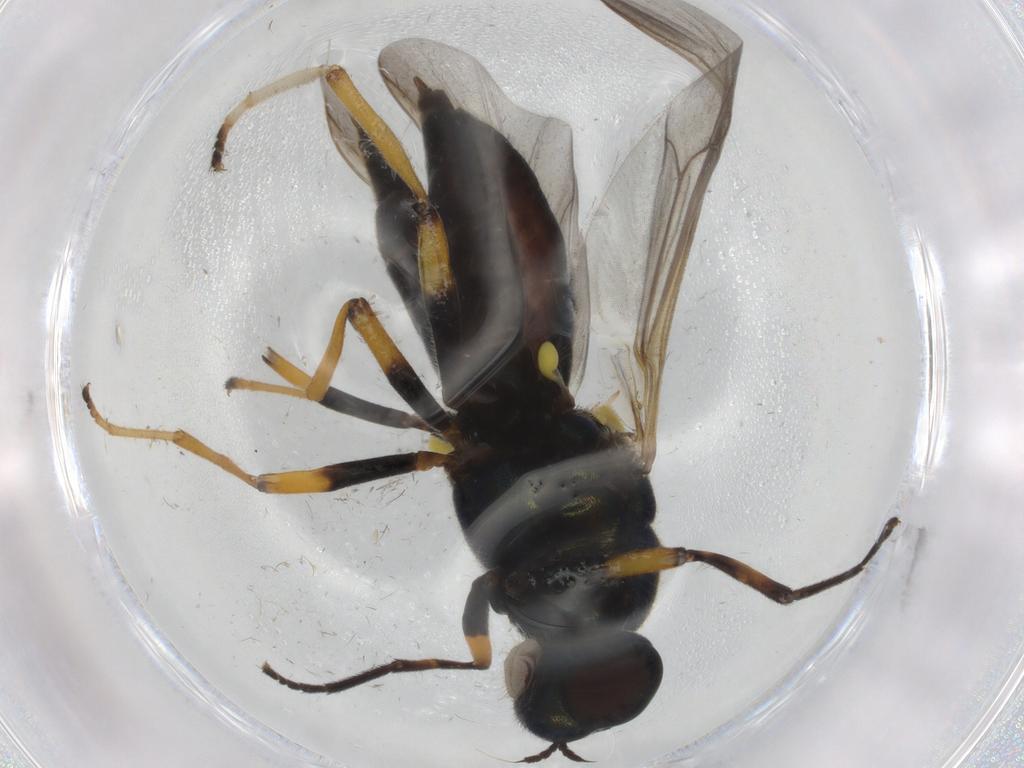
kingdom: Animalia
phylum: Arthropoda
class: Insecta
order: Diptera
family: Stratiomyidae
